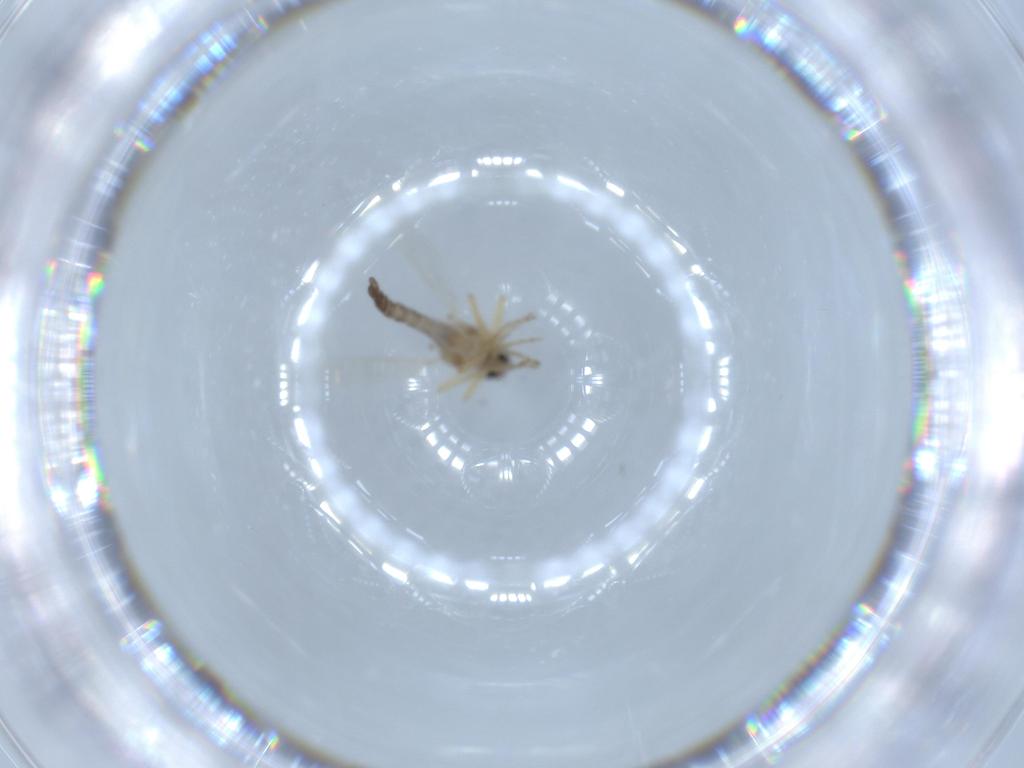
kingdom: Animalia
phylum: Arthropoda
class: Insecta
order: Diptera
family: Ceratopogonidae
